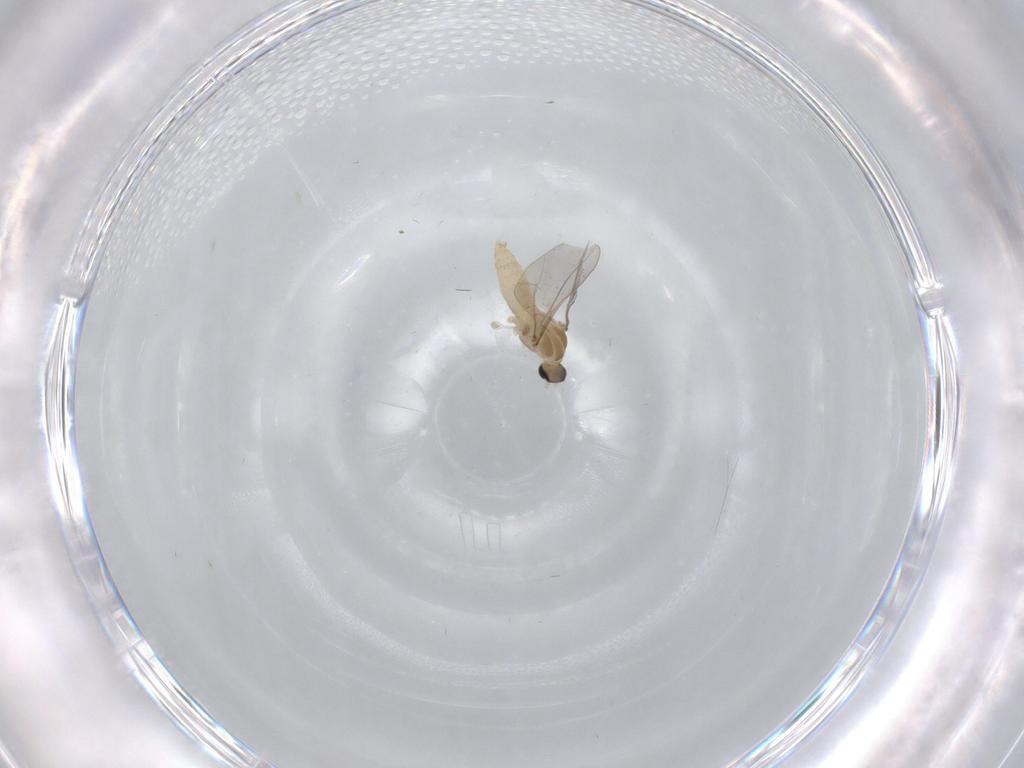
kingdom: Animalia
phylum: Arthropoda
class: Insecta
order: Diptera
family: Cecidomyiidae
